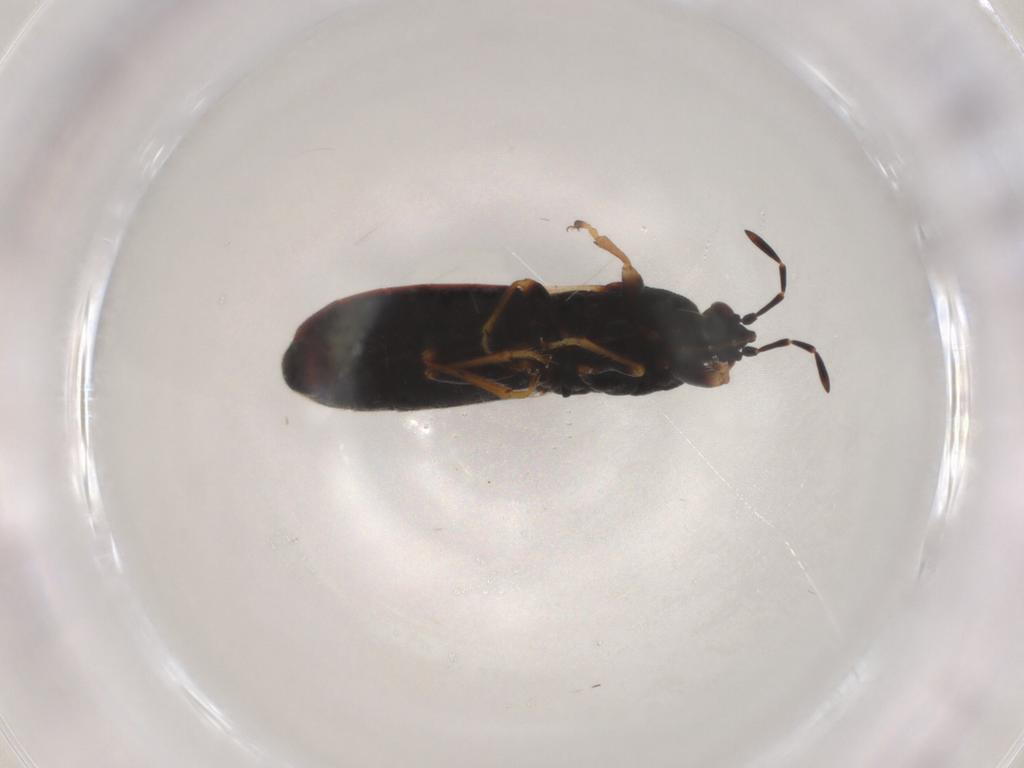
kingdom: Animalia
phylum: Arthropoda
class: Insecta
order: Hemiptera
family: Blissidae
